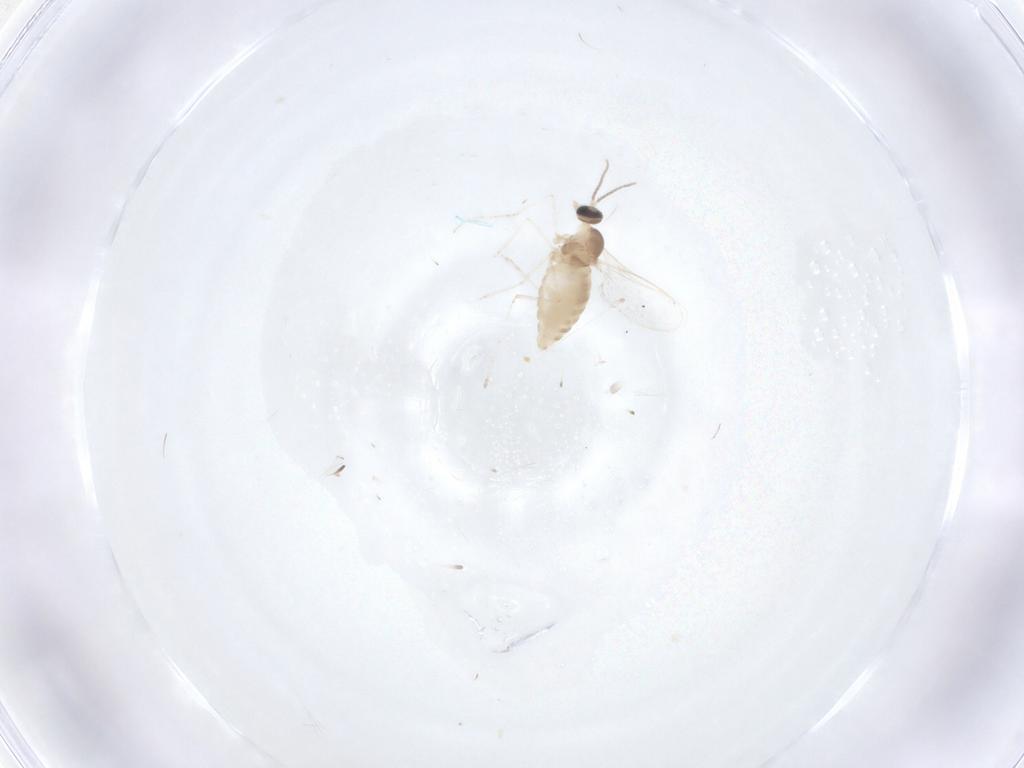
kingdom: Animalia
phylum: Arthropoda
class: Insecta
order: Diptera
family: Cecidomyiidae
